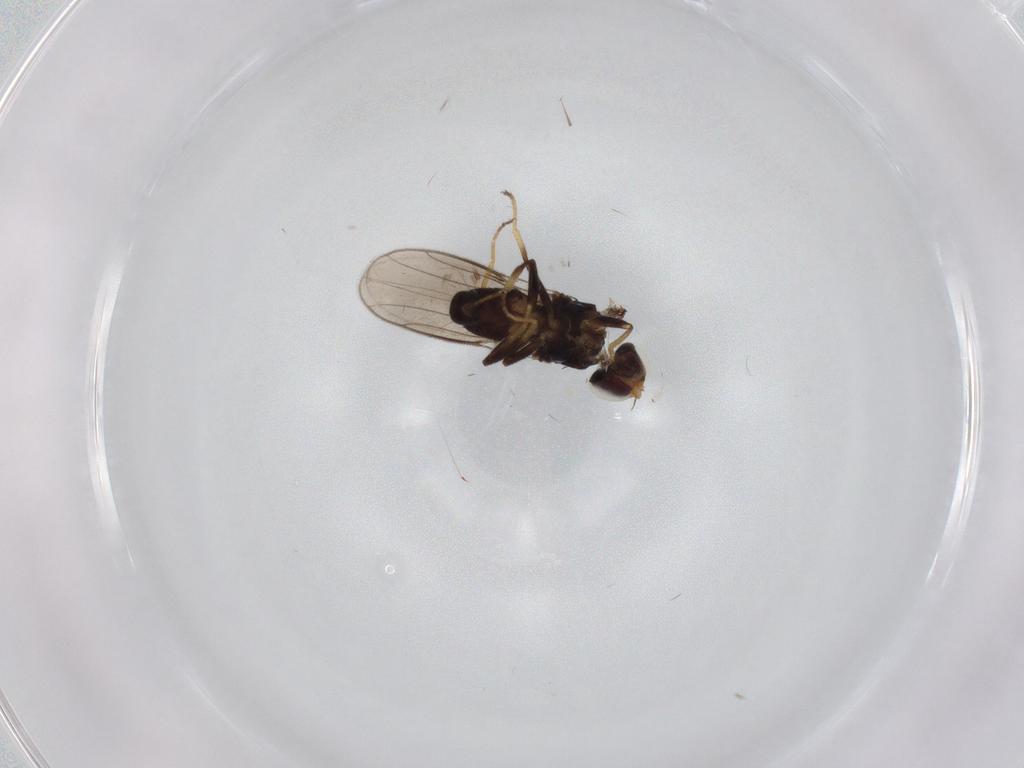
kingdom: Animalia
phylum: Arthropoda
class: Insecta
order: Diptera
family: Chloropidae
